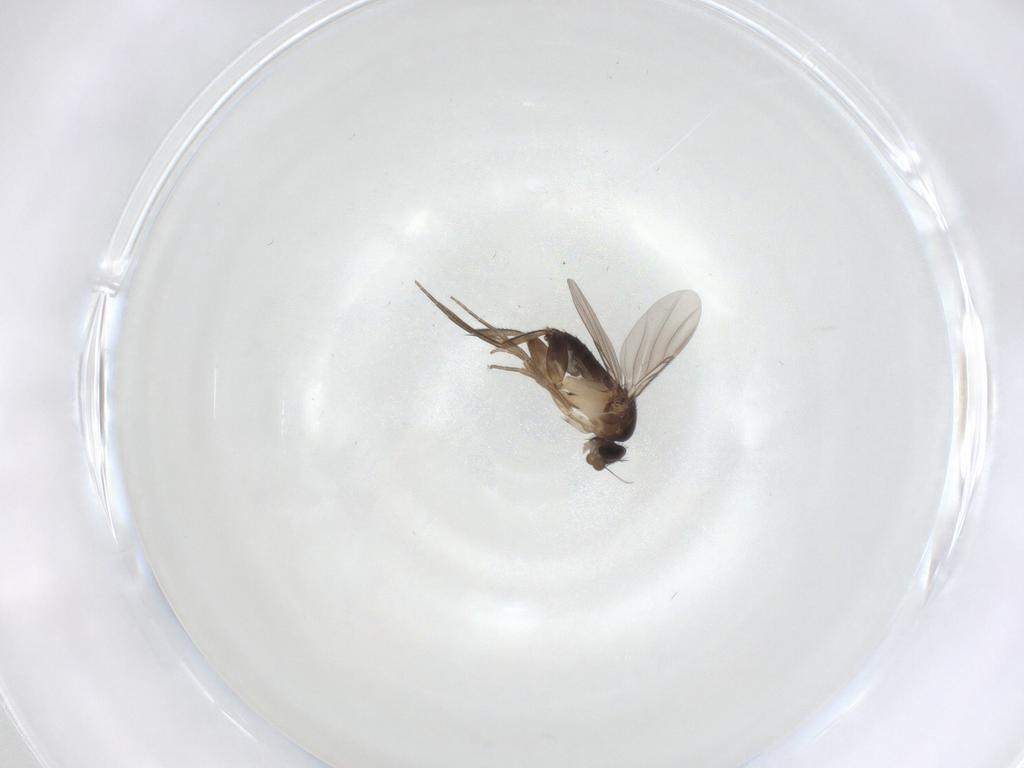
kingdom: Animalia
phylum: Arthropoda
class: Insecta
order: Diptera
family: Phoridae
